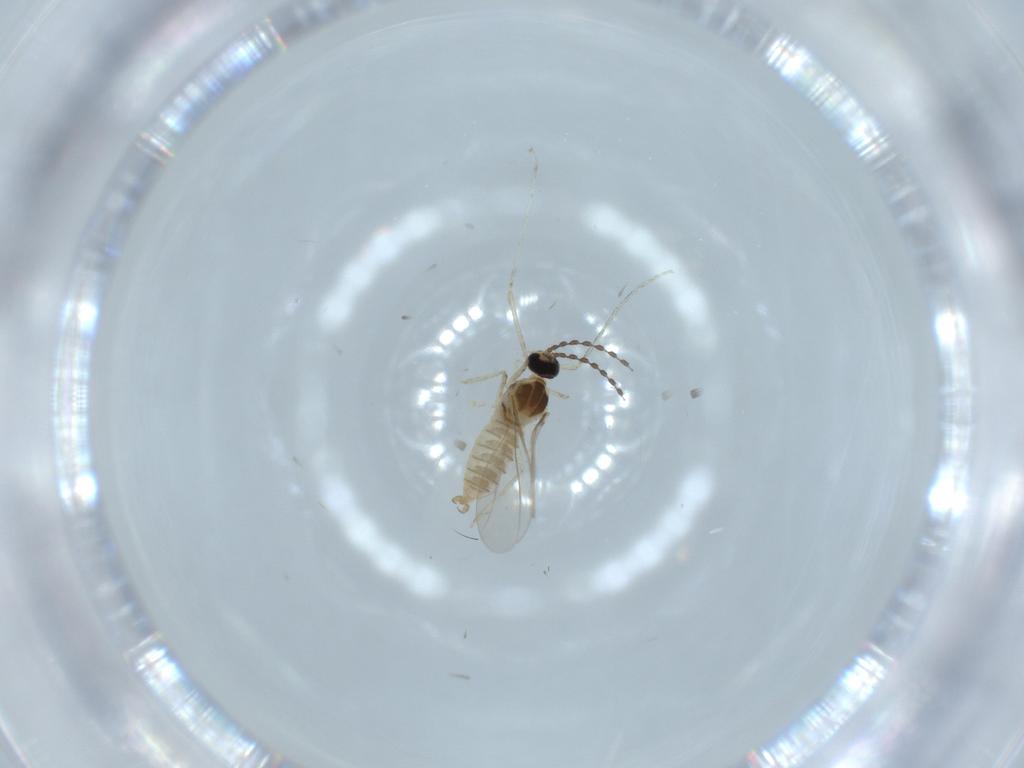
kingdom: Animalia
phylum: Arthropoda
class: Insecta
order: Diptera
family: Cecidomyiidae
